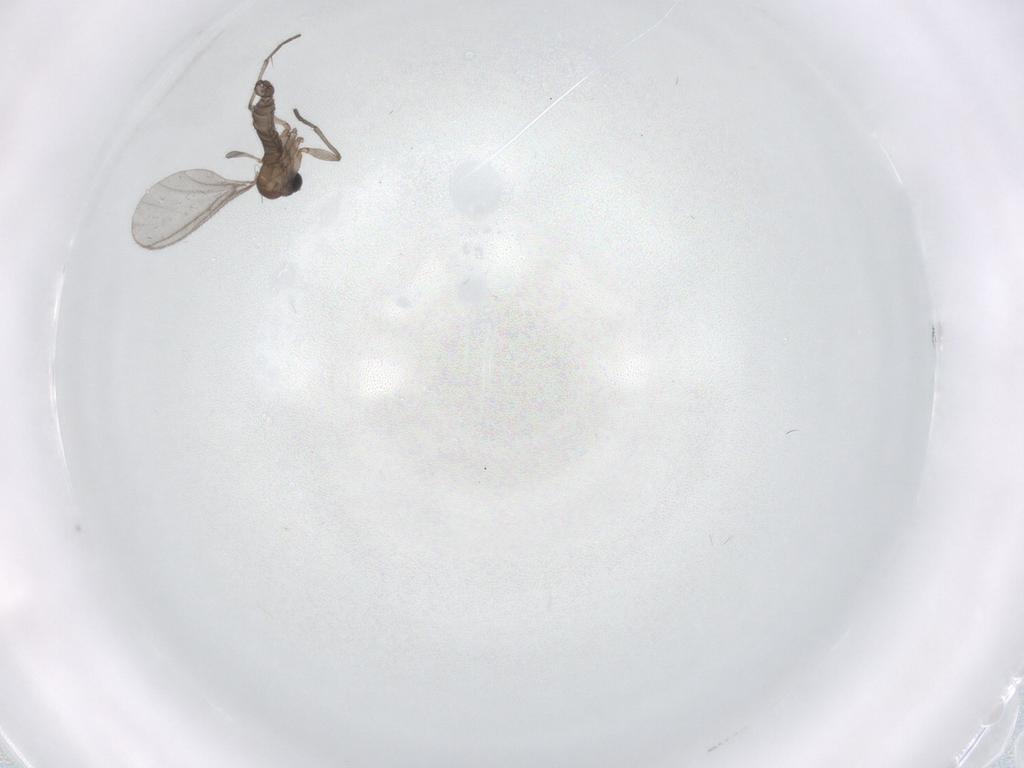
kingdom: Animalia
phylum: Arthropoda
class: Insecta
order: Diptera
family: Sciaridae
